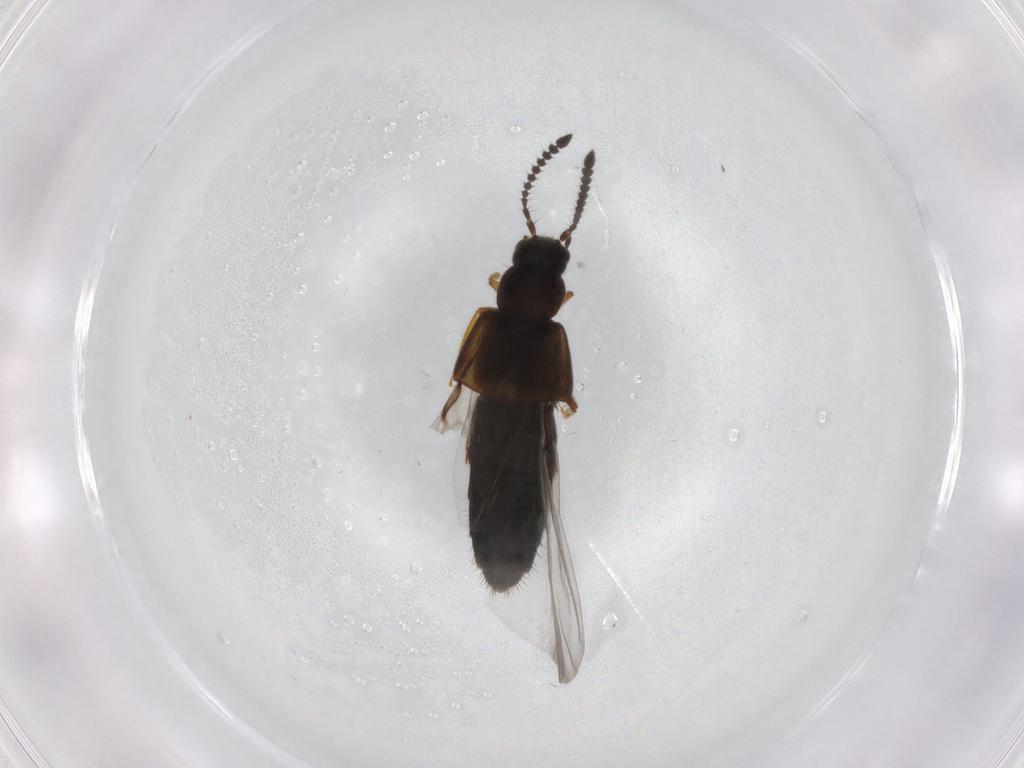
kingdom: Animalia
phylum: Arthropoda
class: Insecta
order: Coleoptera
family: Staphylinidae
